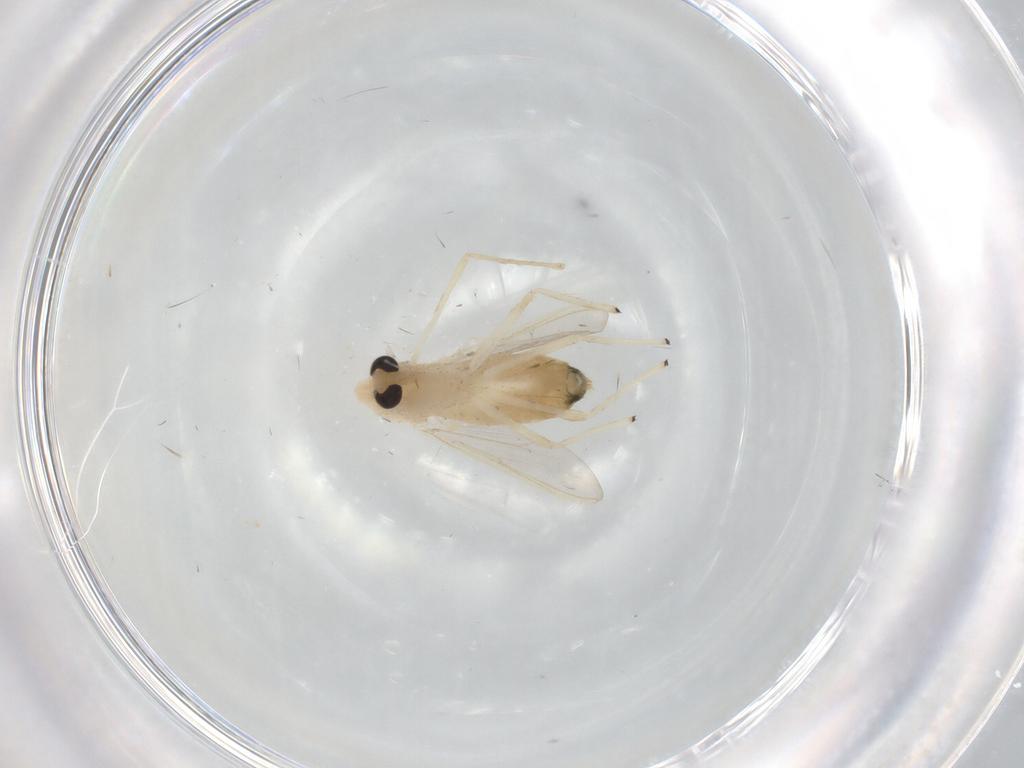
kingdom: Animalia
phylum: Arthropoda
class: Insecta
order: Diptera
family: Chironomidae
